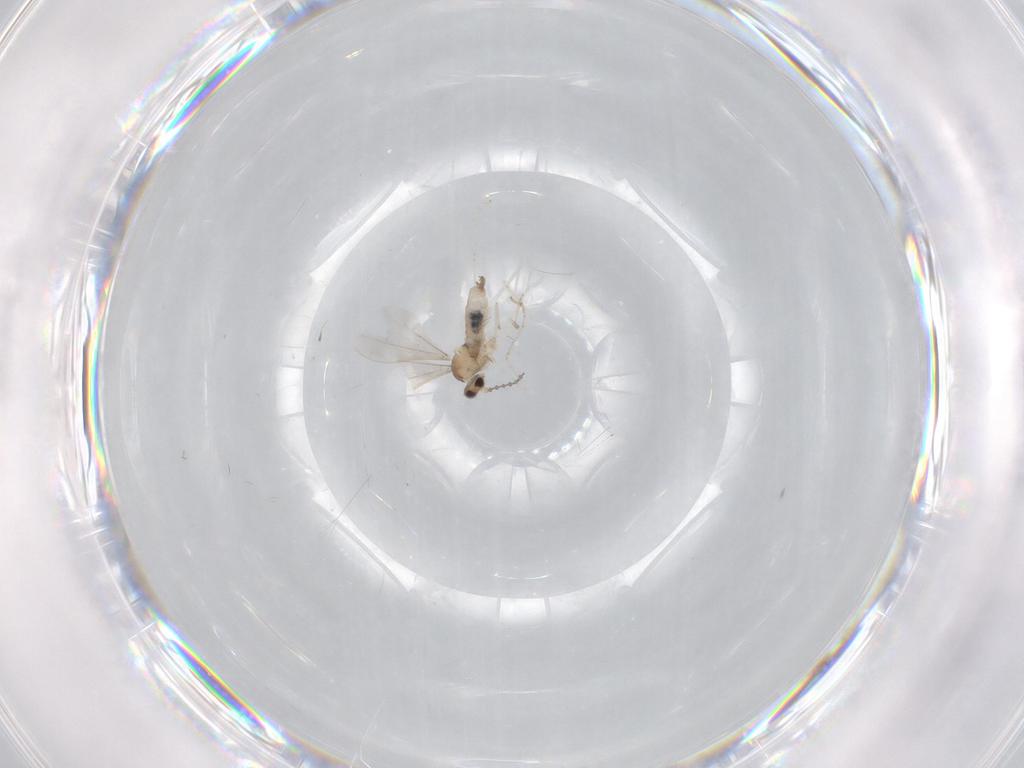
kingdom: Animalia
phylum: Arthropoda
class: Insecta
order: Diptera
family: Cecidomyiidae
